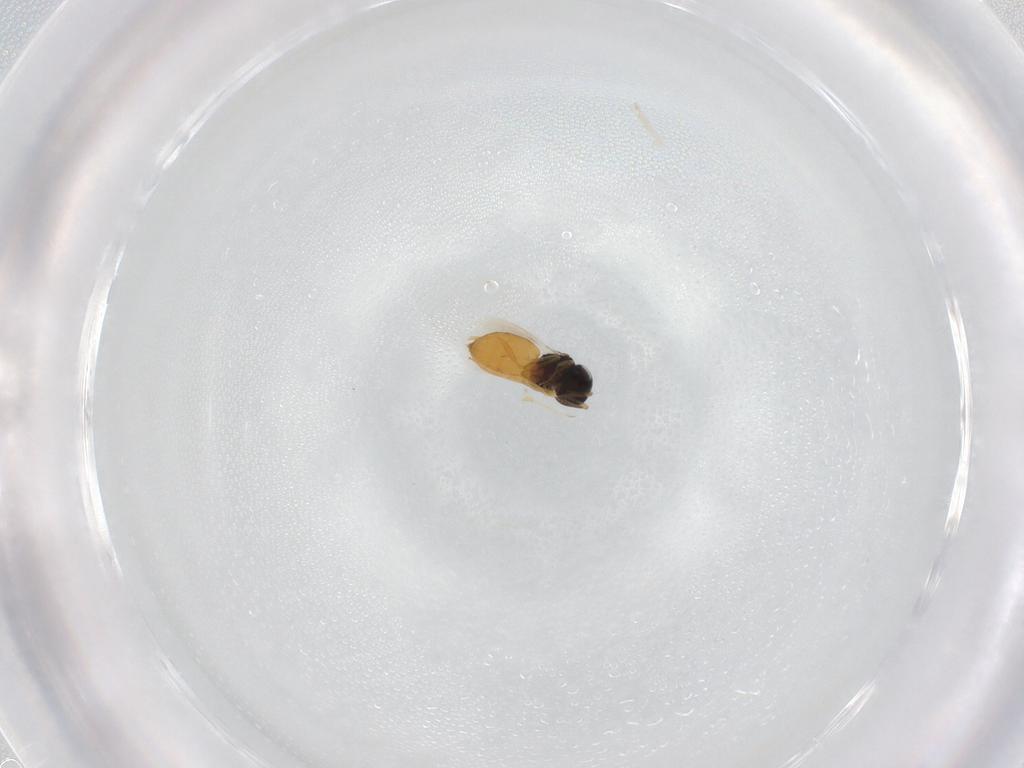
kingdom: Animalia
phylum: Arthropoda
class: Insecta
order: Hymenoptera
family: Scelionidae
